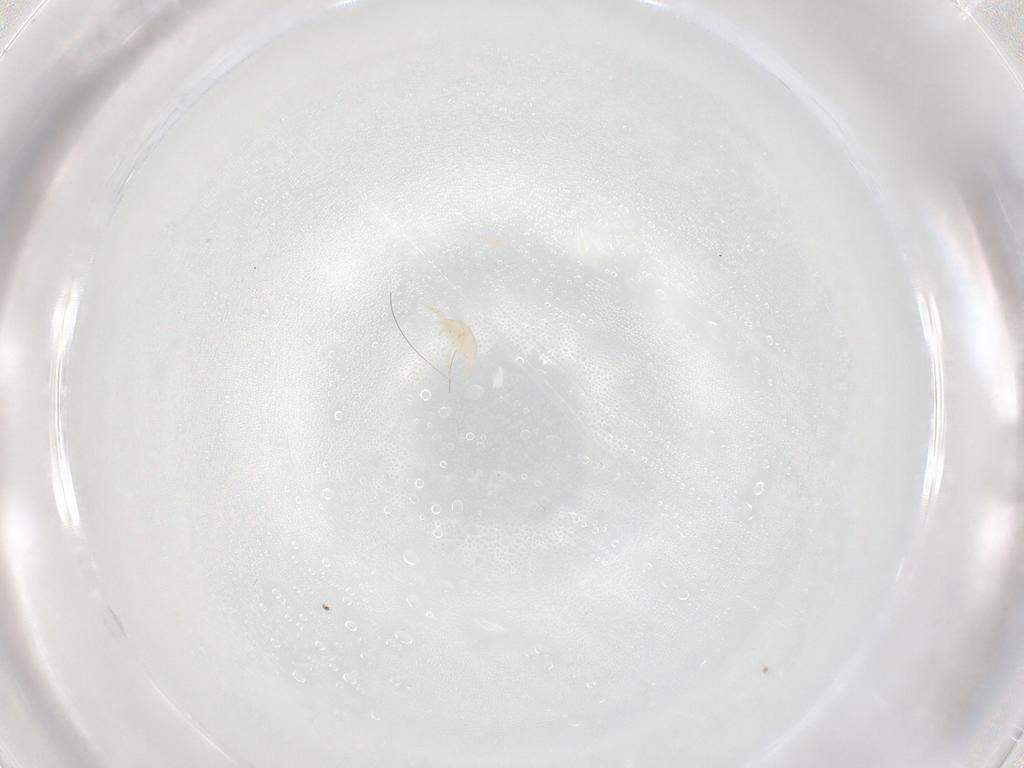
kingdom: Animalia
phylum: Arthropoda
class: Arachnida
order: Mesostigmata
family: Phytoseiidae
